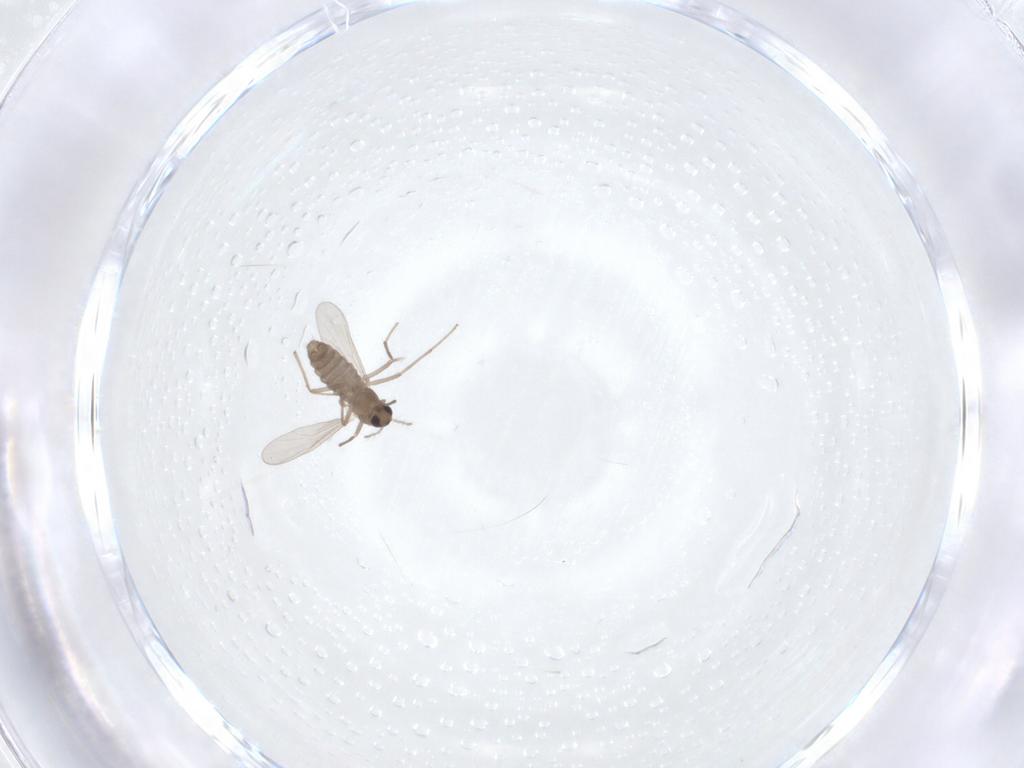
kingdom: Animalia
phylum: Arthropoda
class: Insecta
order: Diptera
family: Chironomidae
